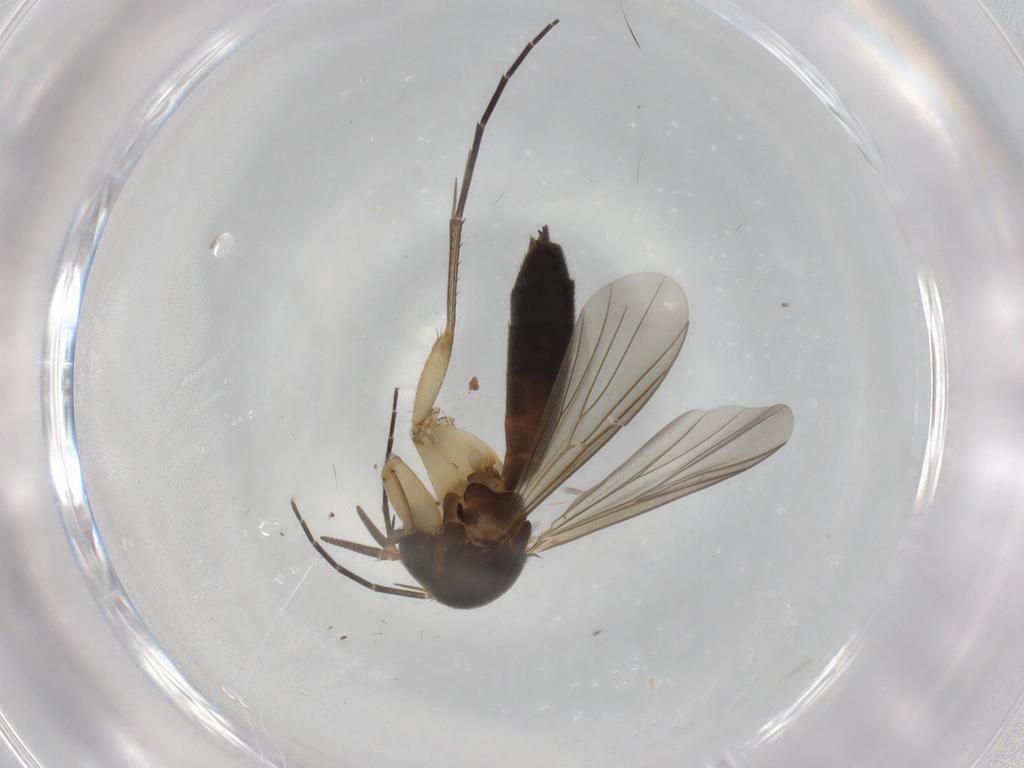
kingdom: Animalia
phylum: Arthropoda
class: Insecta
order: Diptera
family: Mycetophilidae
